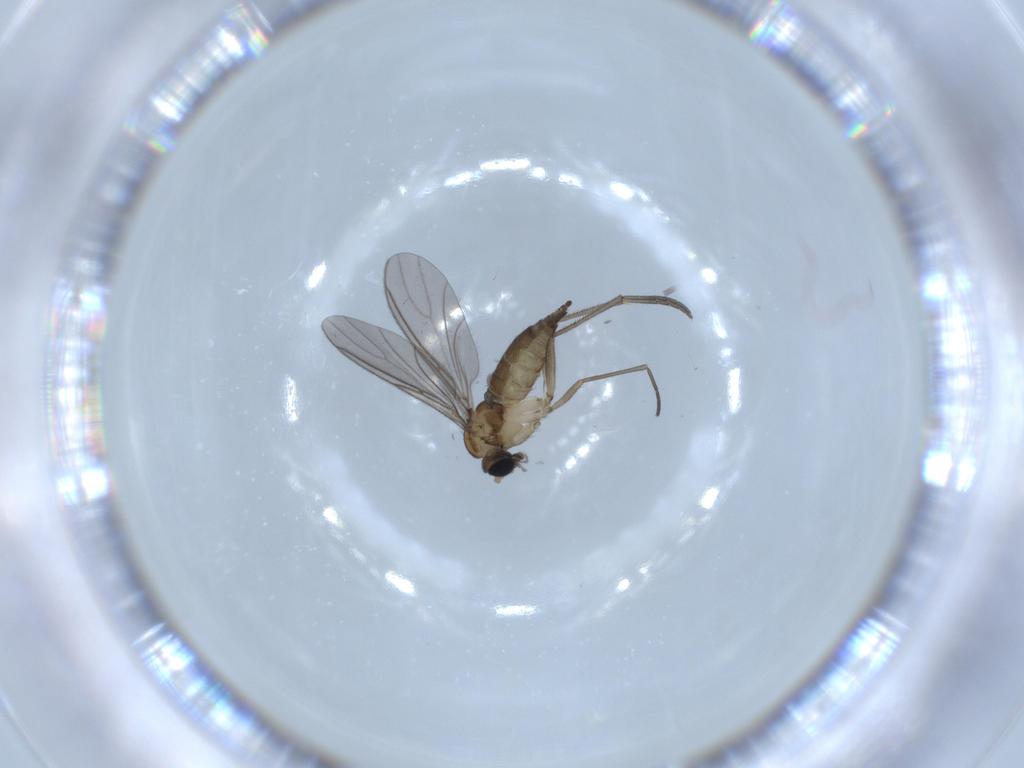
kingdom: Animalia
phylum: Arthropoda
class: Insecta
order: Diptera
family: Sciaridae
